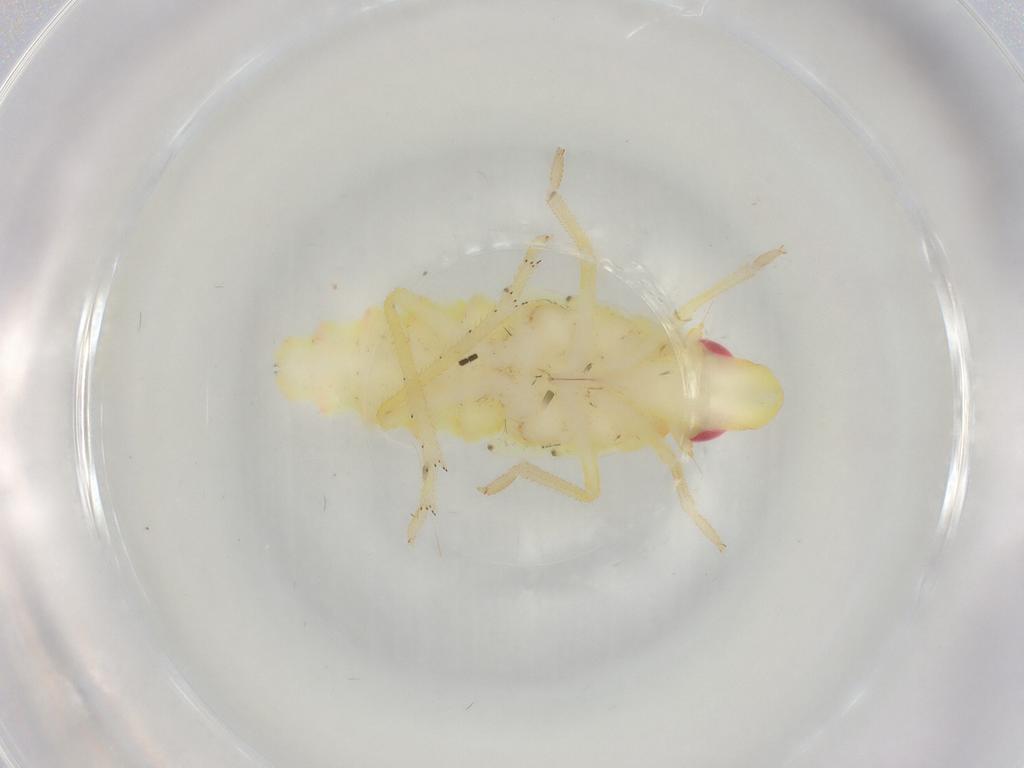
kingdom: Animalia
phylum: Arthropoda
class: Insecta
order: Hemiptera
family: Tropiduchidae
